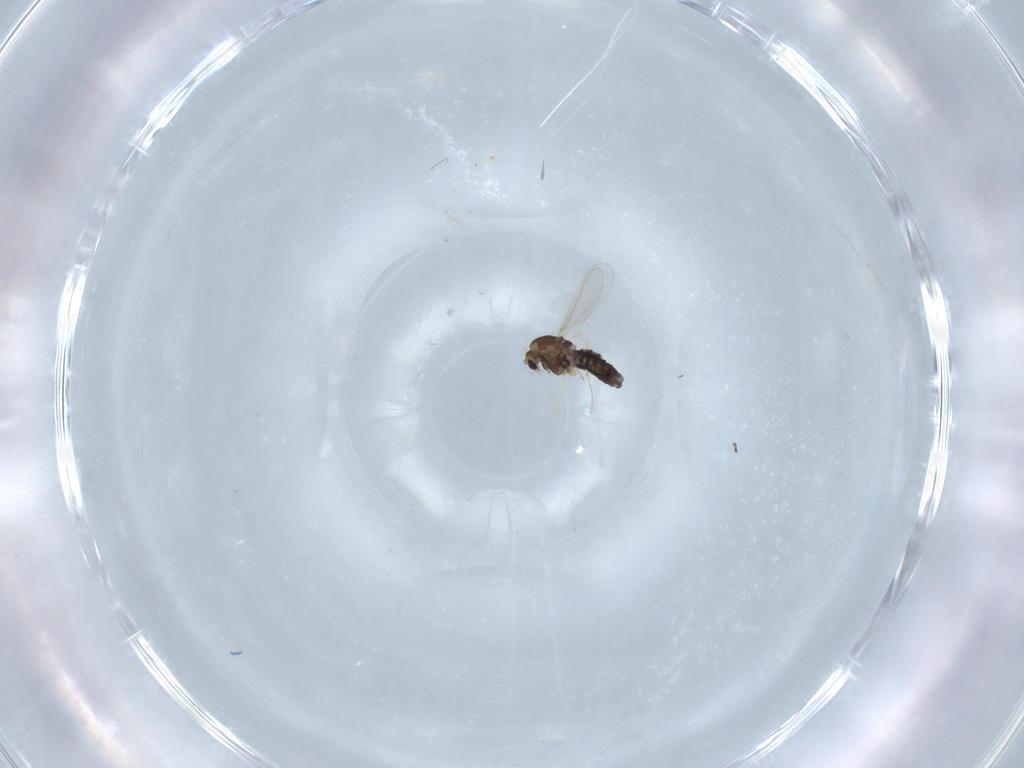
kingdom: Animalia
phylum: Arthropoda
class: Insecta
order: Diptera
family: Chironomidae
